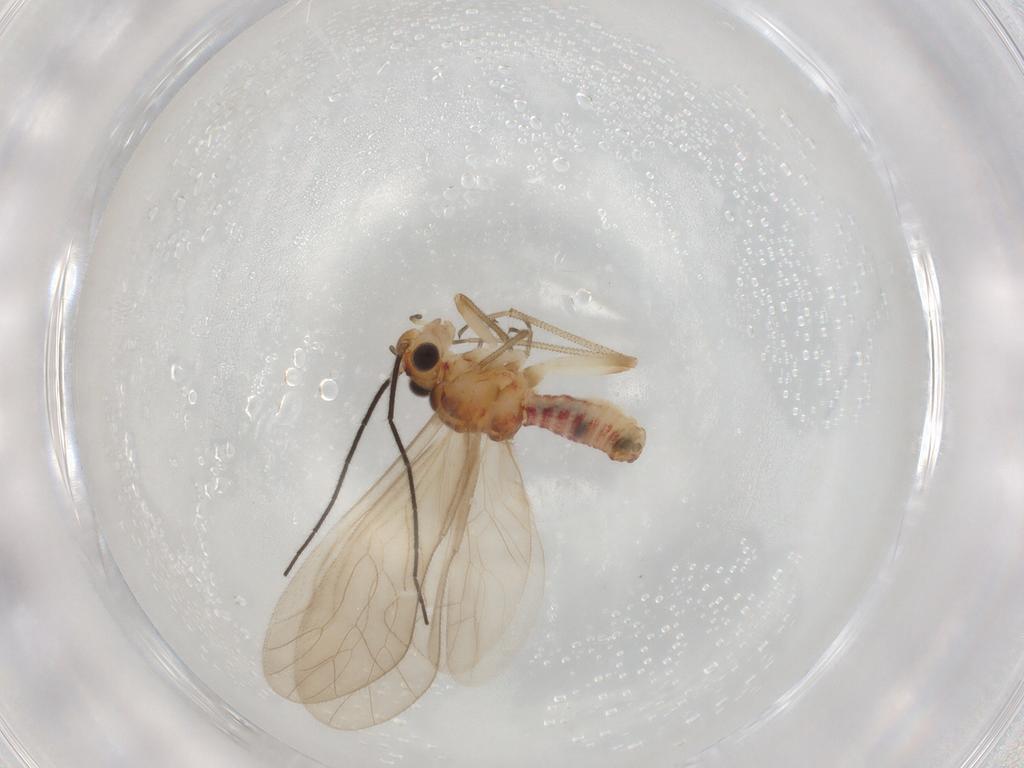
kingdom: Animalia
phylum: Arthropoda
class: Insecta
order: Psocodea
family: Caeciliusidae
